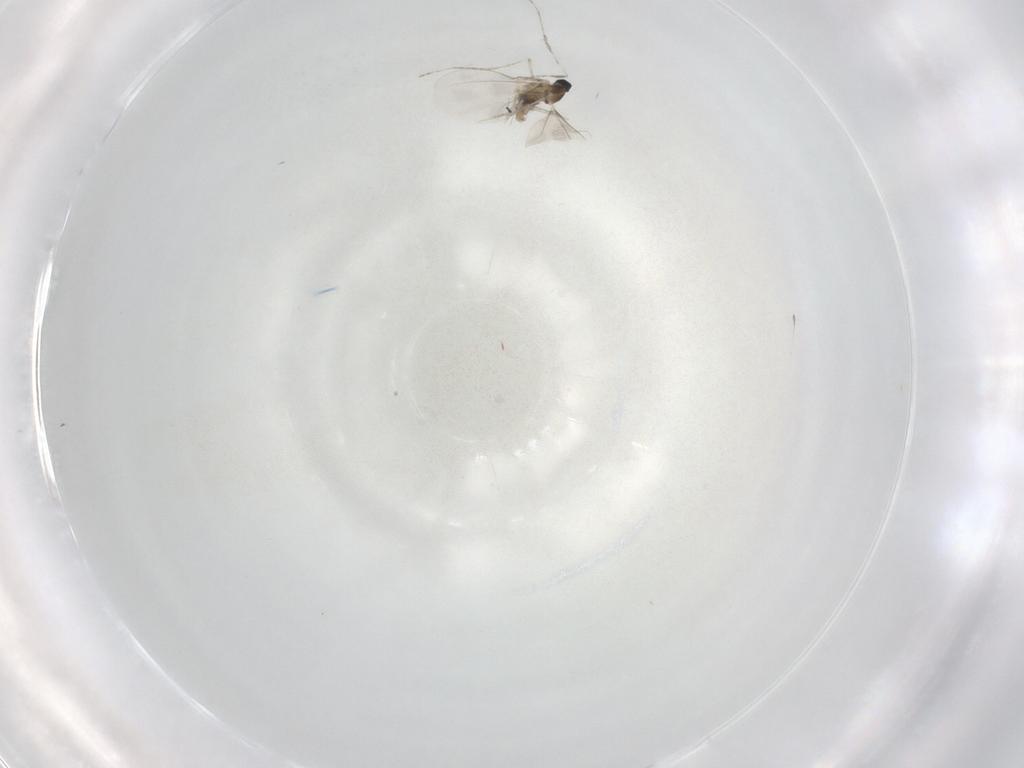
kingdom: Animalia
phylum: Arthropoda
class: Insecta
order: Diptera
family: Cecidomyiidae
